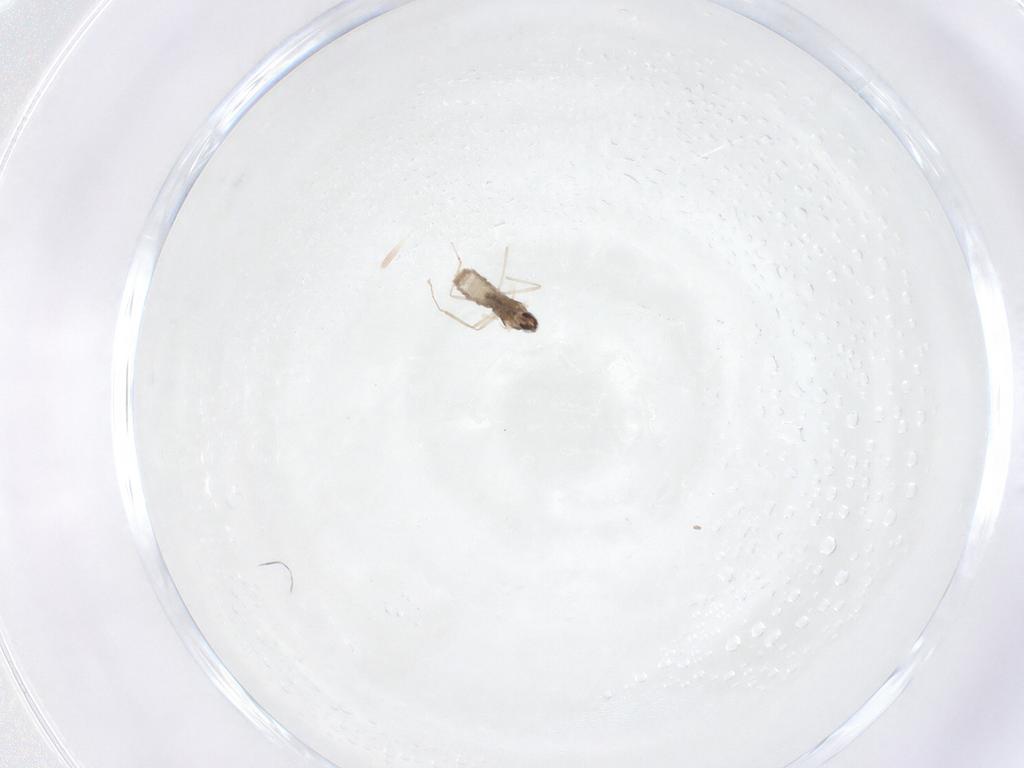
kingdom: Animalia
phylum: Arthropoda
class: Insecta
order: Diptera
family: Cecidomyiidae
